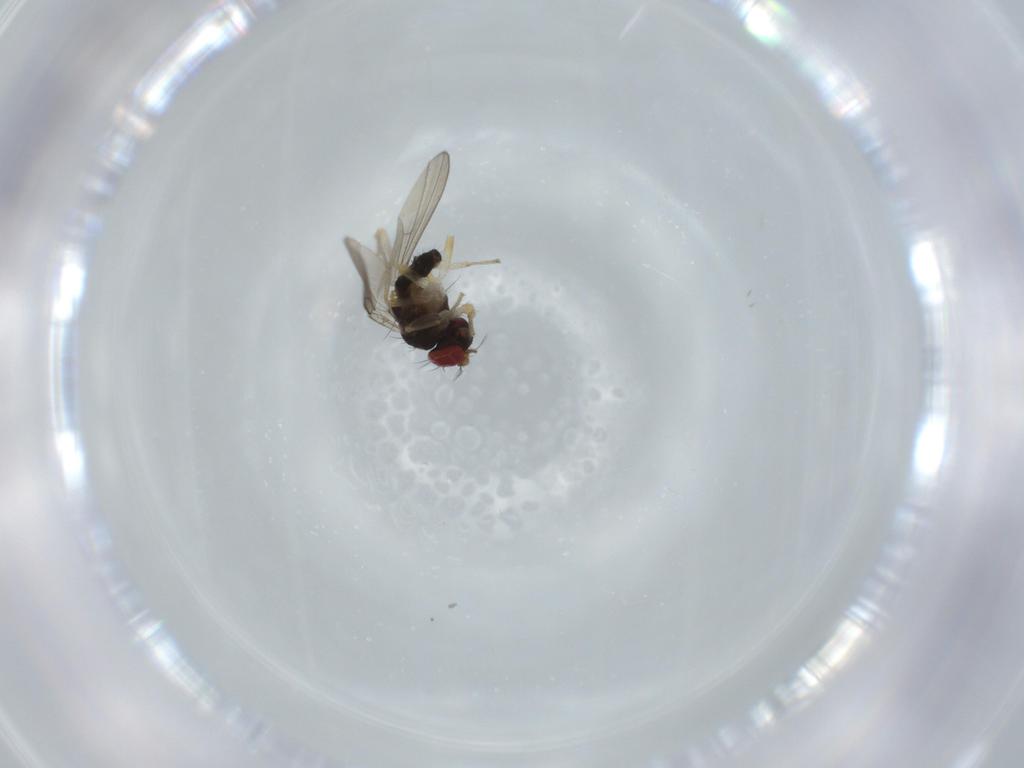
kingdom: Animalia
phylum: Arthropoda
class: Insecta
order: Diptera
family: Drosophilidae
